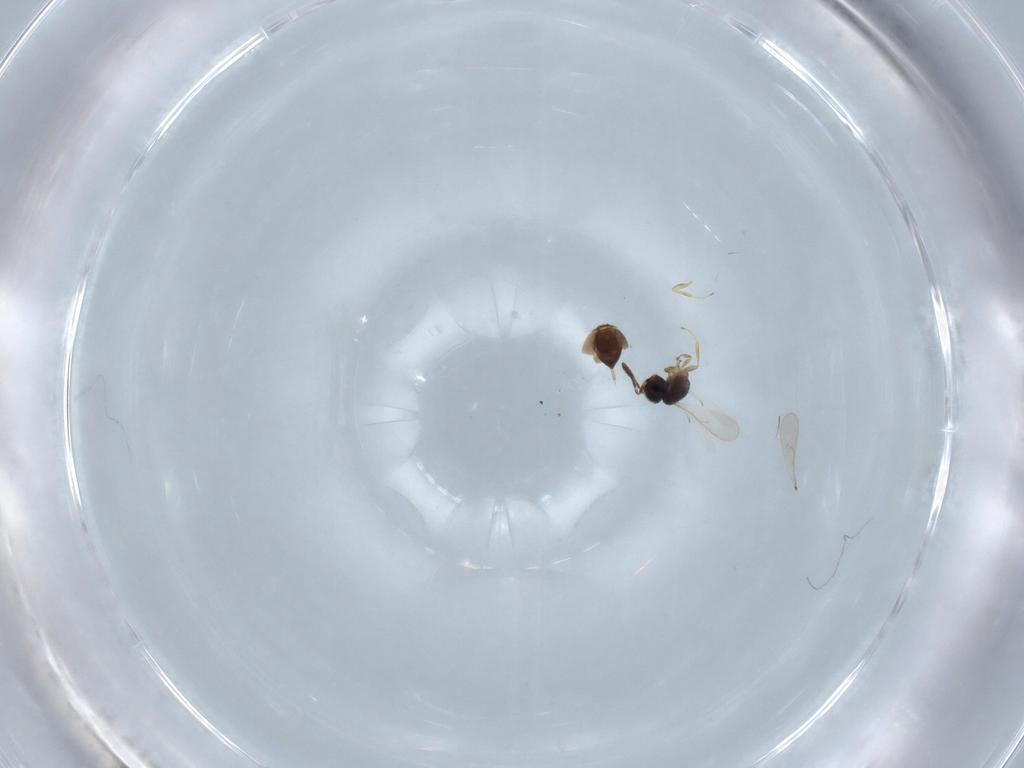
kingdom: Animalia
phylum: Arthropoda
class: Insecta
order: Hymenoptera
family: Scelionidae
